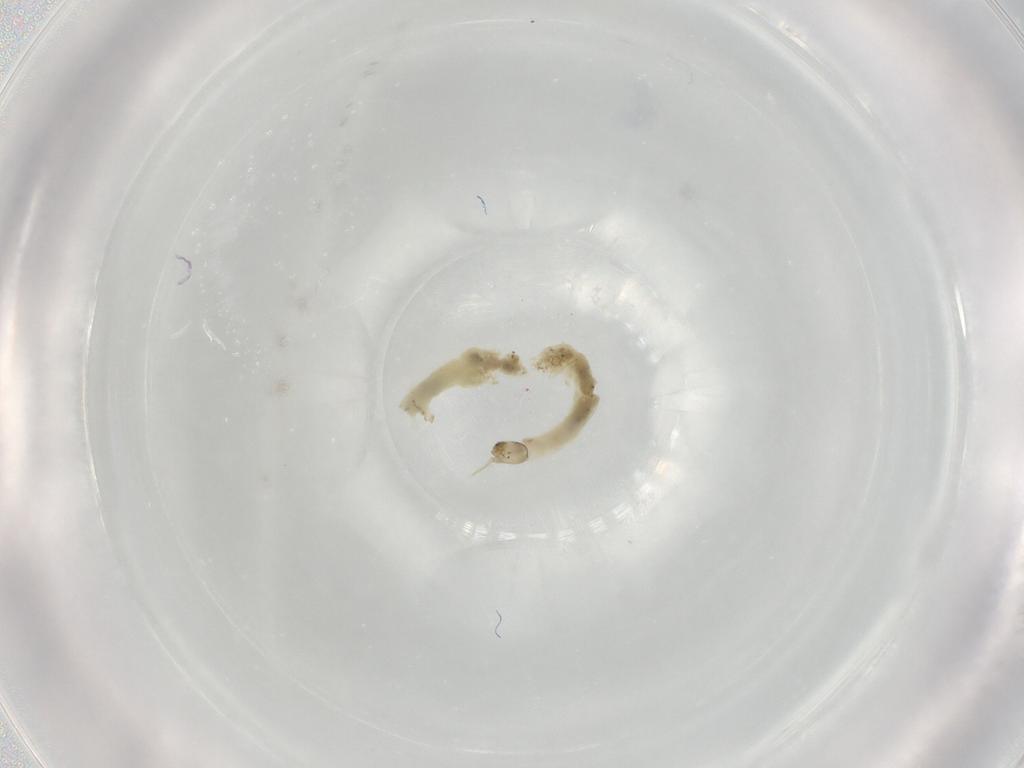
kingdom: Animalia
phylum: Arthropoda
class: Insecta
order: Diptera
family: Chironomidae
